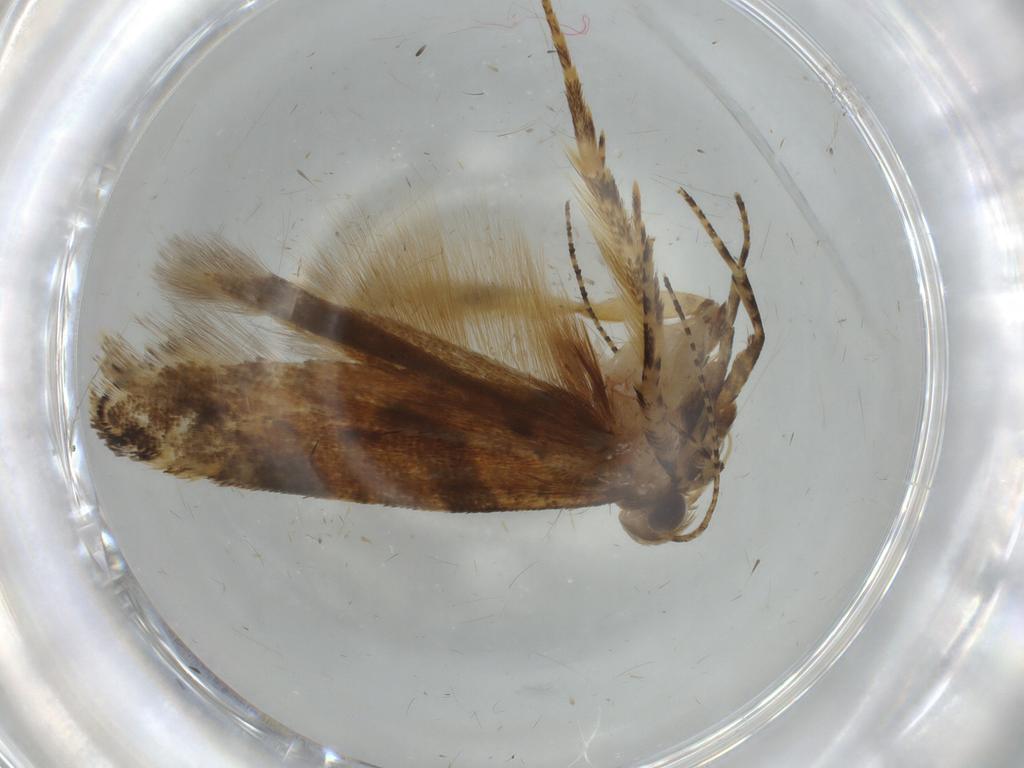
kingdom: Animalia
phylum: Arthropoda
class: Insecta
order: Lepidoptera
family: Gelechiidae
